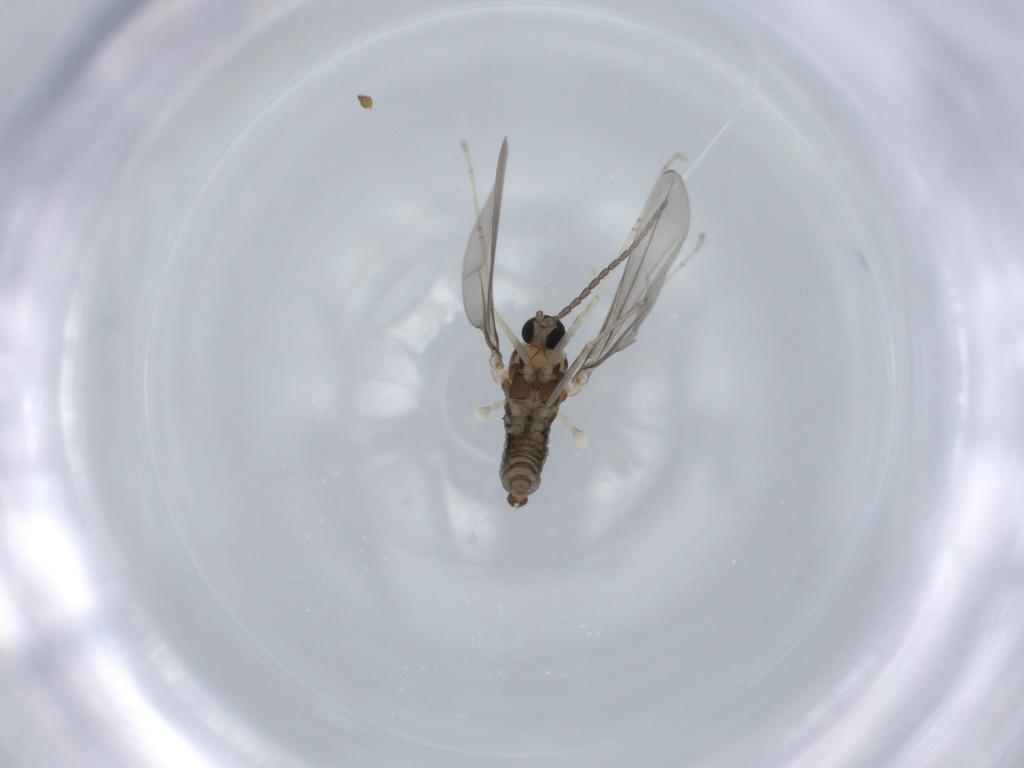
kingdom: Animalia
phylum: Arthropoda
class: Insecta
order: Diptera
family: Cecidomyiidae
